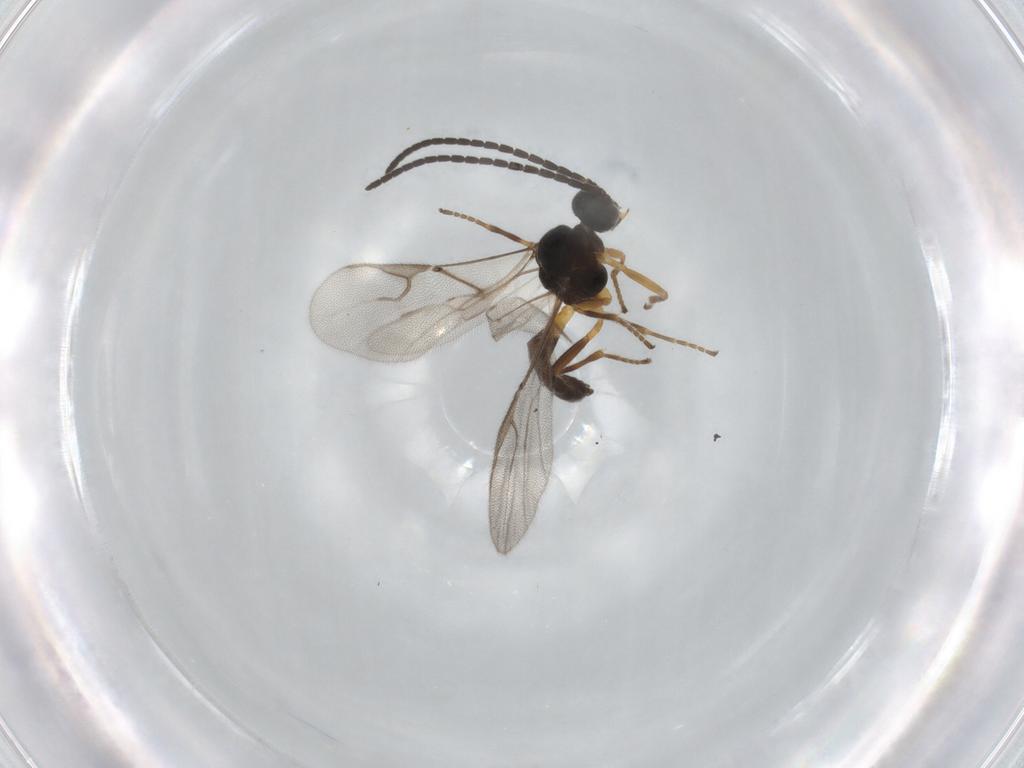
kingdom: Animalia
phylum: Arthropoda
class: Insecta
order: Hymenoptera
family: Braconidae
